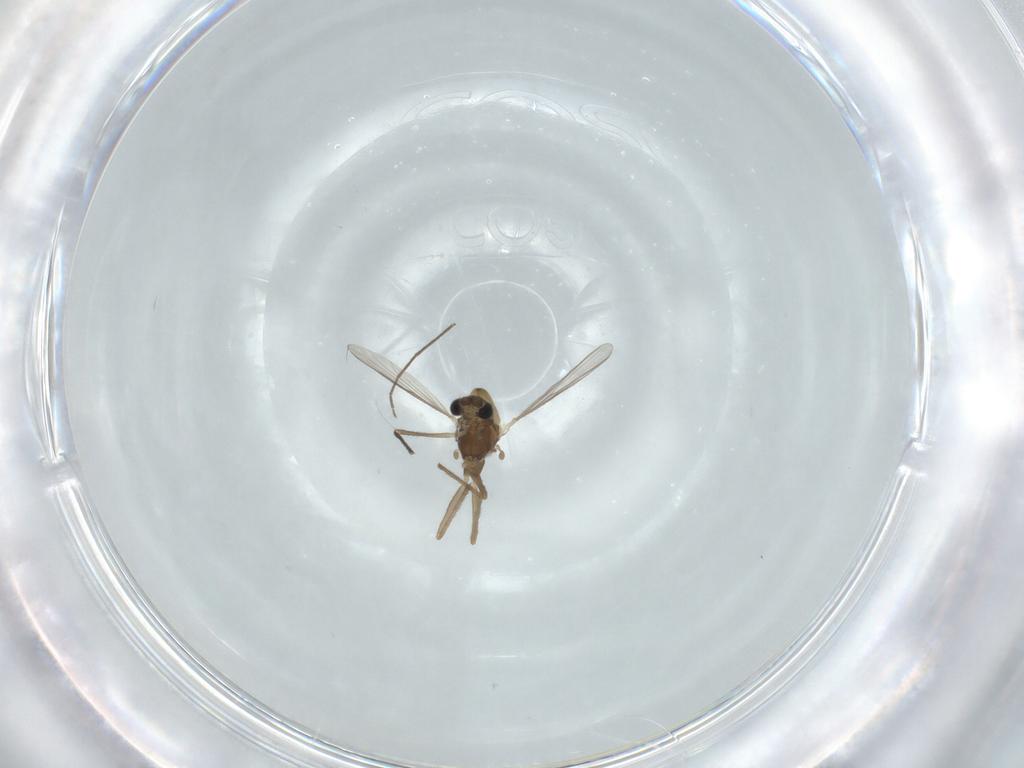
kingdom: Animalia
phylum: Arthropoda
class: Insecta
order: Diptera
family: Chironomidae
